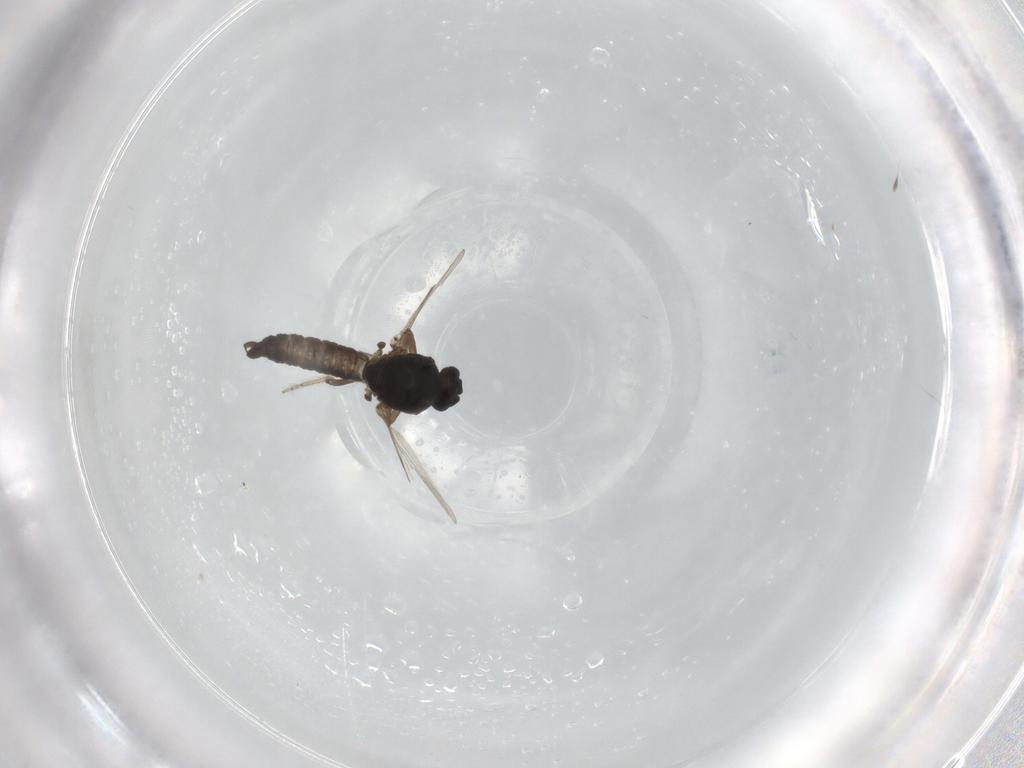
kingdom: Animalia
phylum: Arthropoda
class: Insecta
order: Diptera
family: Ceratopogonidae
